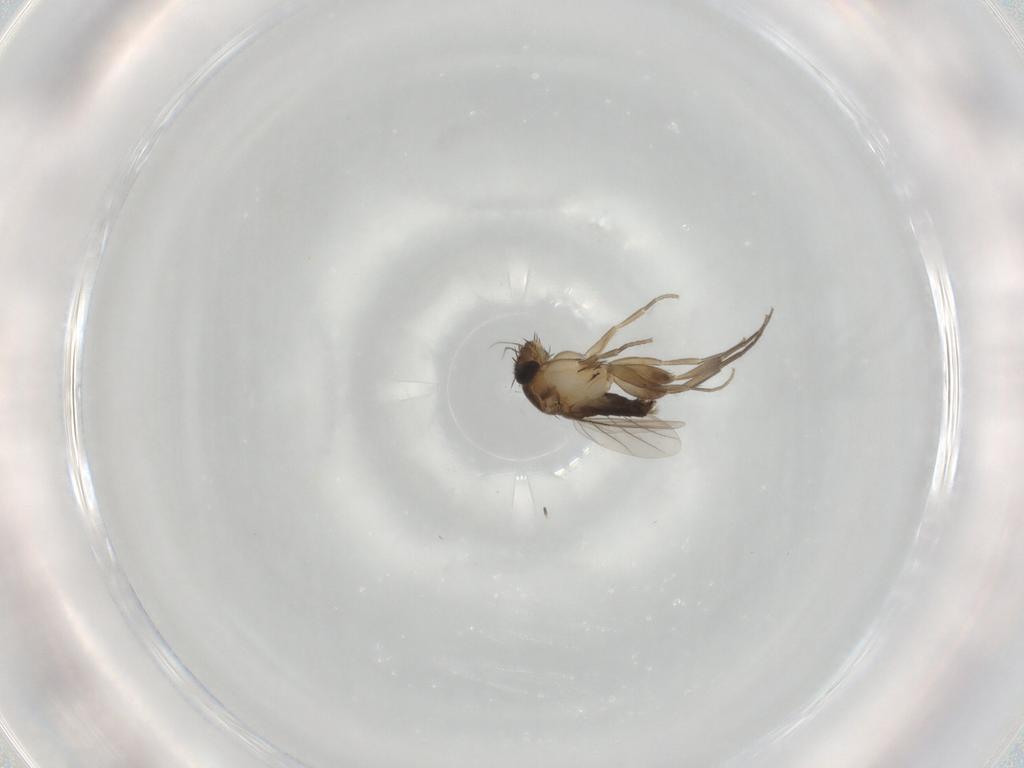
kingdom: Animalia
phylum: Arthropoda
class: Insecta
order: Diptera
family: Phoridae
